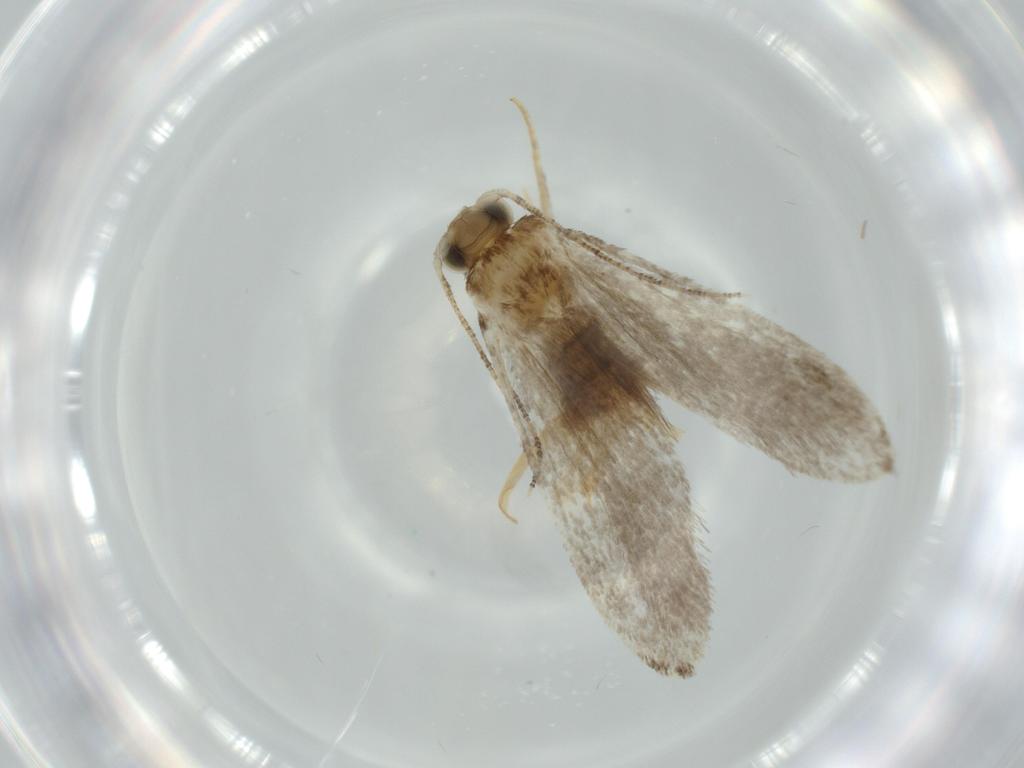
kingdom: Animalia
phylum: Arthropoda
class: Insecta
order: Lepidoptera
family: Tineidae
